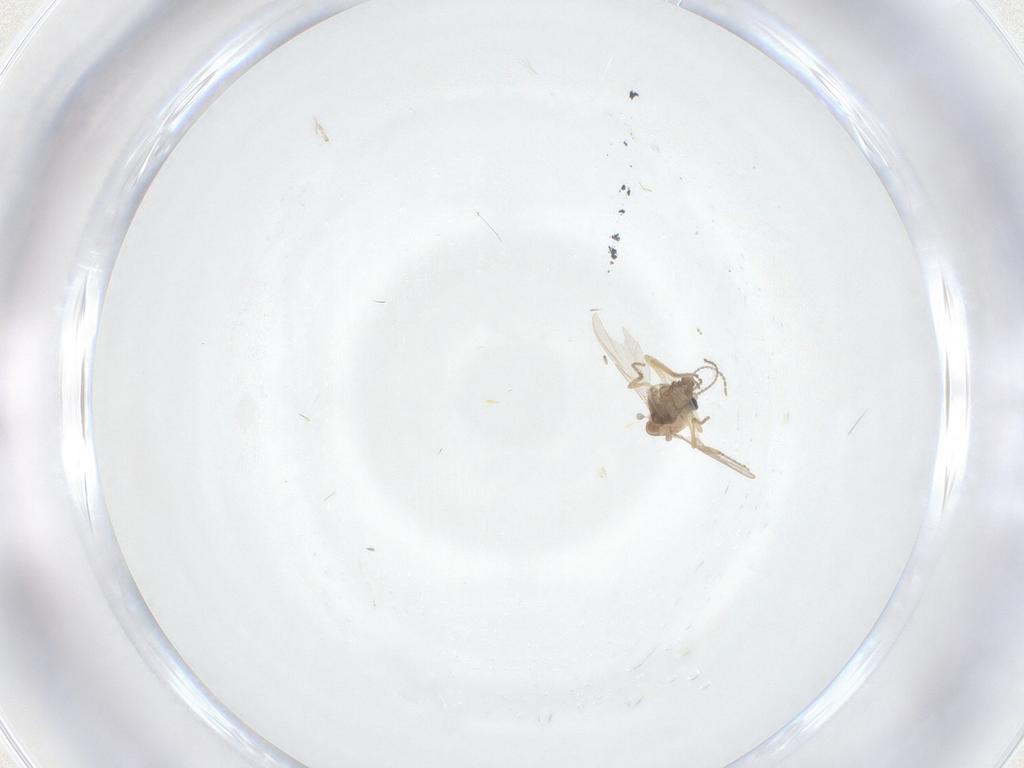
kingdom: Animalia
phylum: Arthropoda
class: Insecta
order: Diptera
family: Ceratopogonidae
